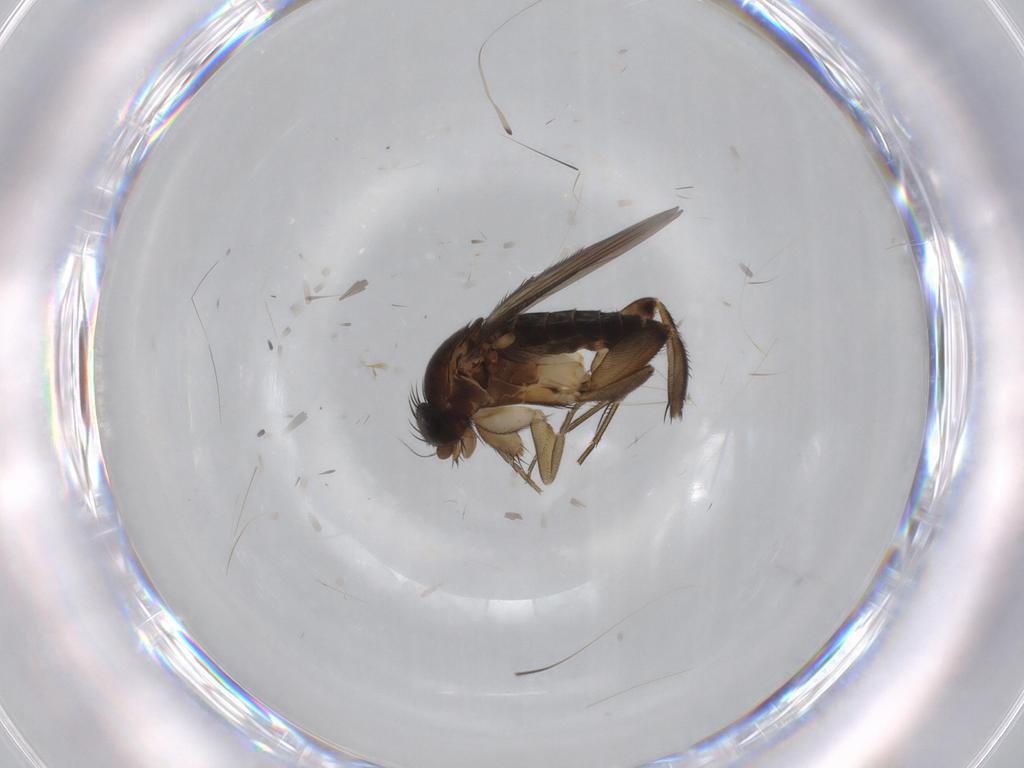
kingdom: Animalia
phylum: Arthropoda
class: Insecta
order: Diptera
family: Phoridae
